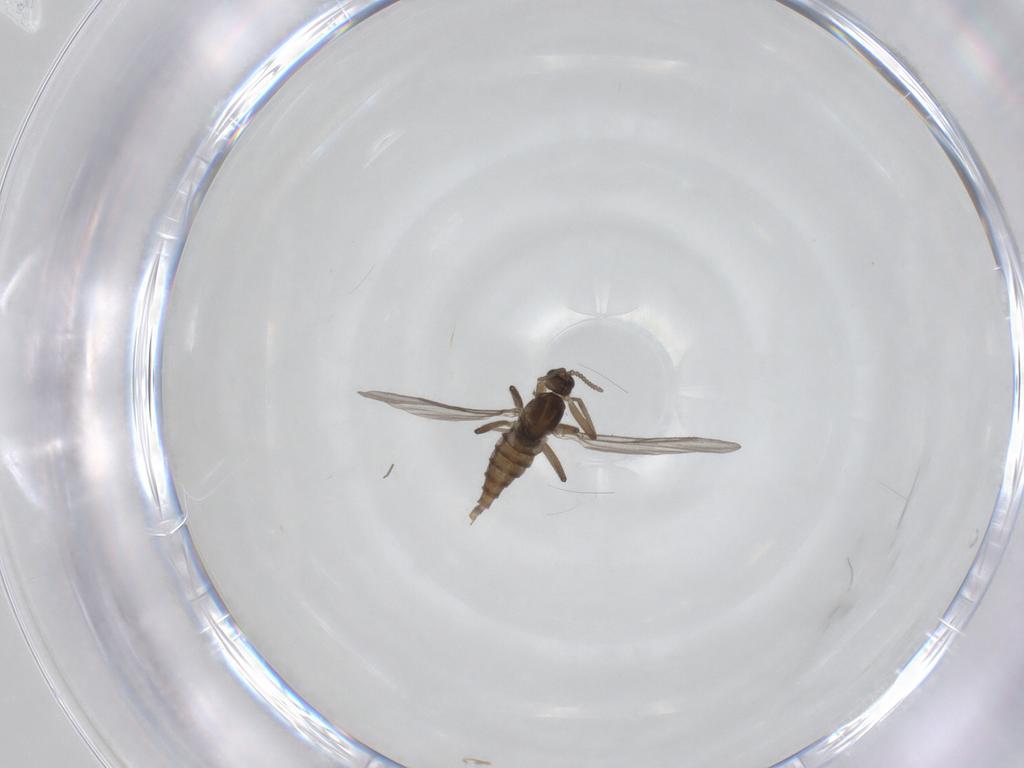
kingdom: Animalia
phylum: Arthropoda
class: Insecta
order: Diptera
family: Cecidomyiidae
